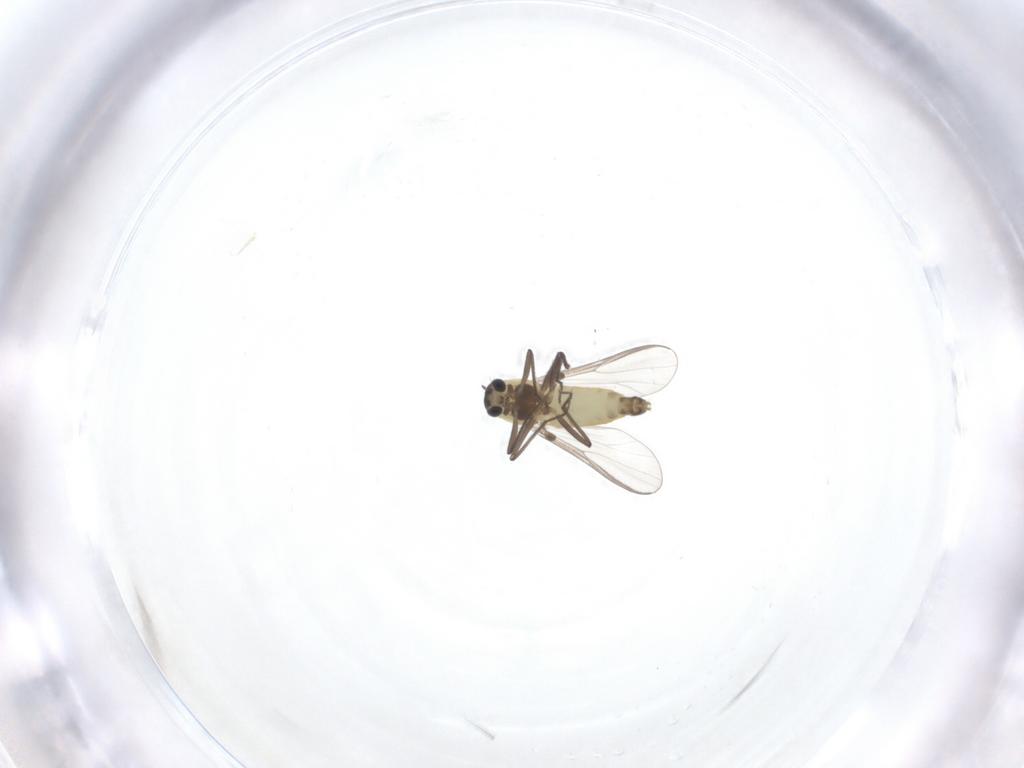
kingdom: Animalia
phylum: Arthropoda
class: Insecta
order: Diptera
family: Chironomidae
